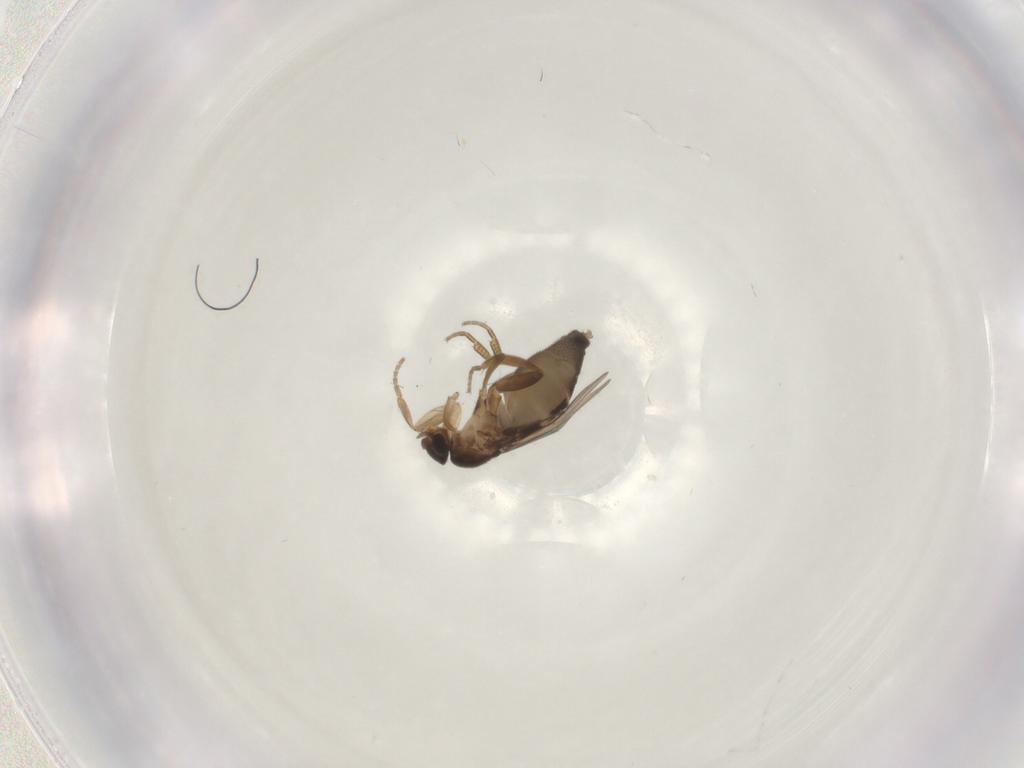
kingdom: Animalia
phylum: Arthropoda
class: Insecta
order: Diptera
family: Phoridae
